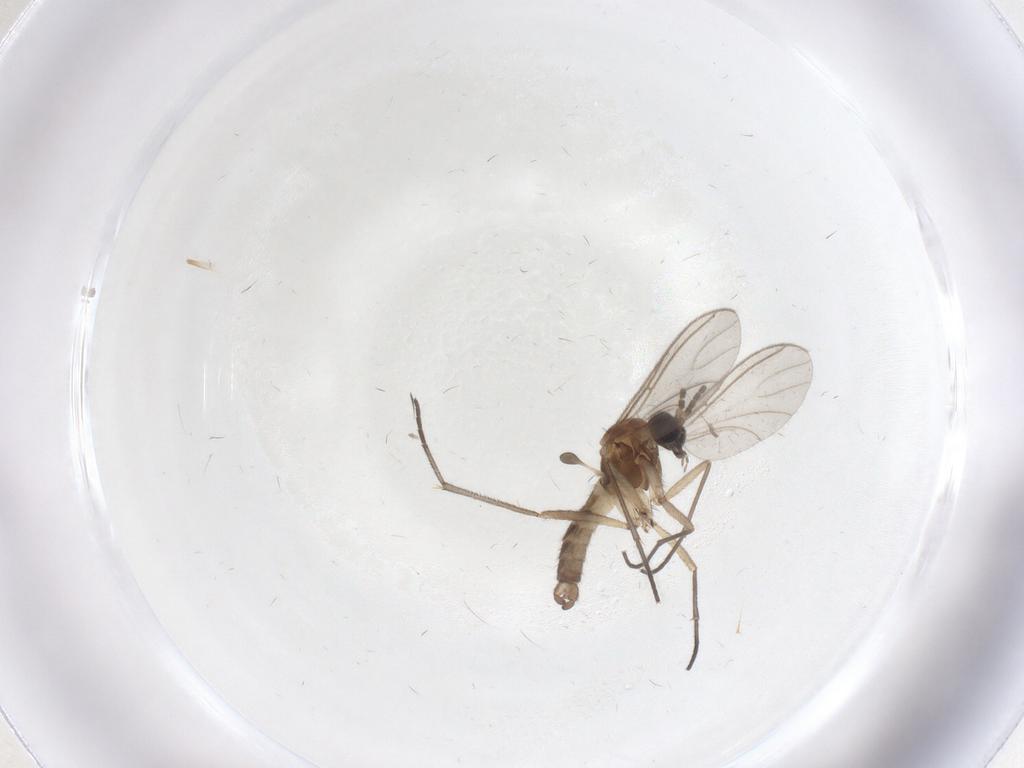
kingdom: Animalia
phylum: Arthropoda
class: Insecta
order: Diptera
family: Sciaridae
